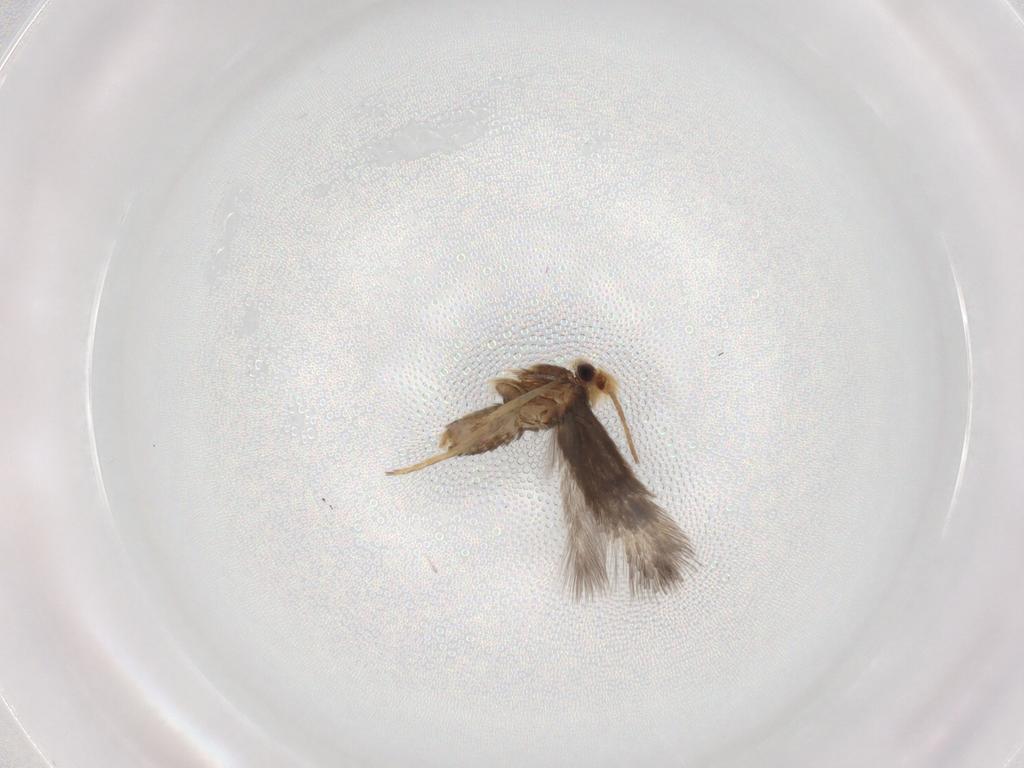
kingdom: Animalia
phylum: Arthropoda
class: Insecta
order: Lepidoptera
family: Nepticulidae
